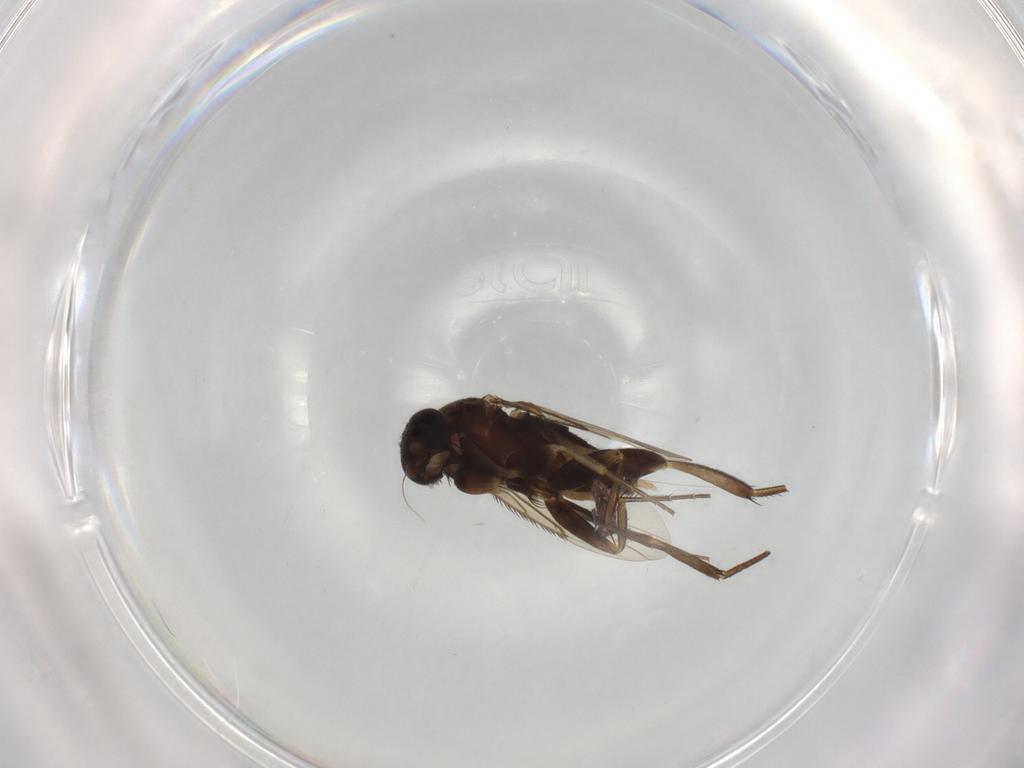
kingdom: Animalia
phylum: Arthropoda
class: Insecta
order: Diptera
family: Phoridae
